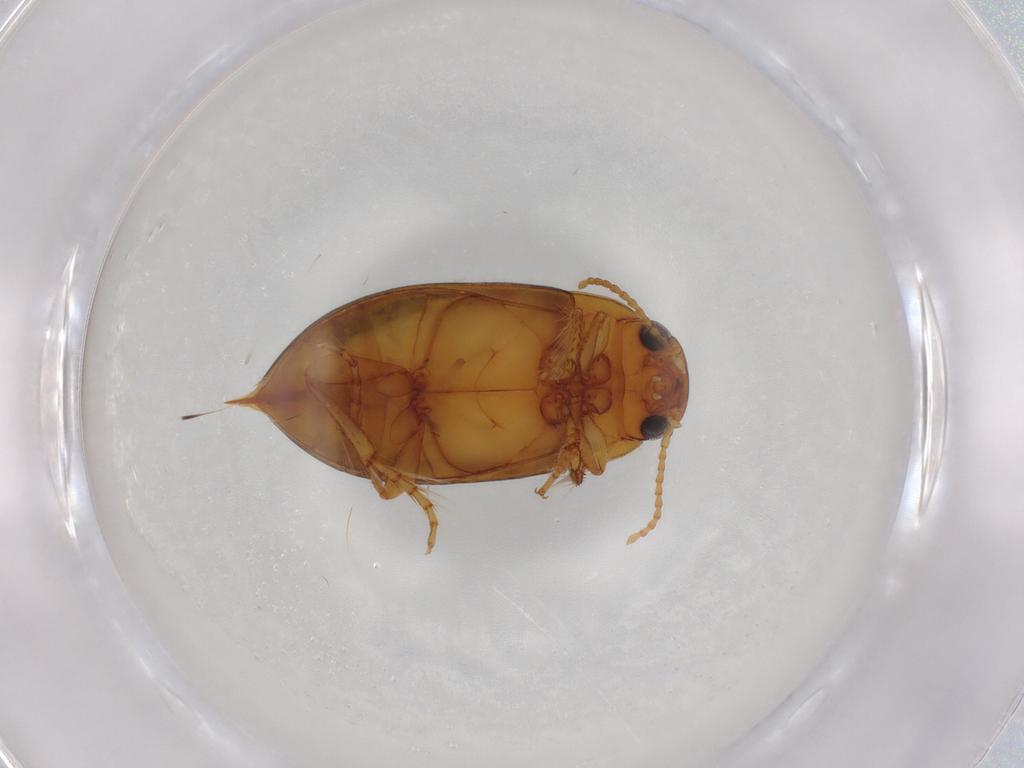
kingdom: Animalia
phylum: Arthropoda
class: Insecta
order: Coleoptera
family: Dytiscidae
